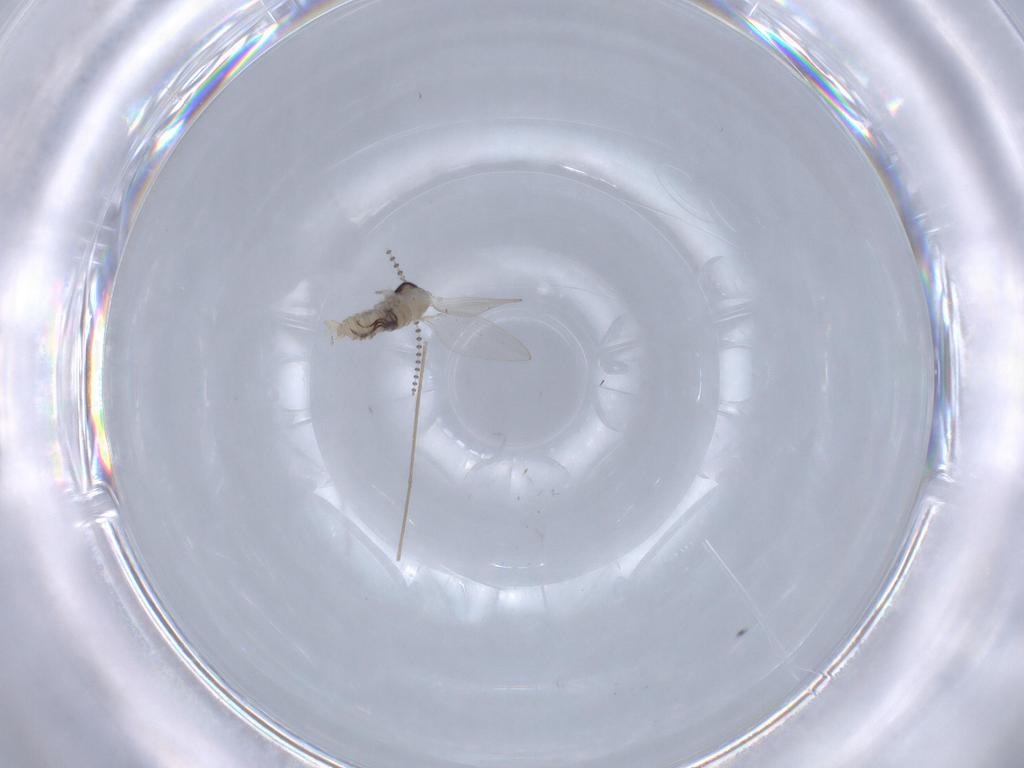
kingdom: Animalia
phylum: Arthropoda
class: Insecta
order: Diptera
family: Psychodidae
